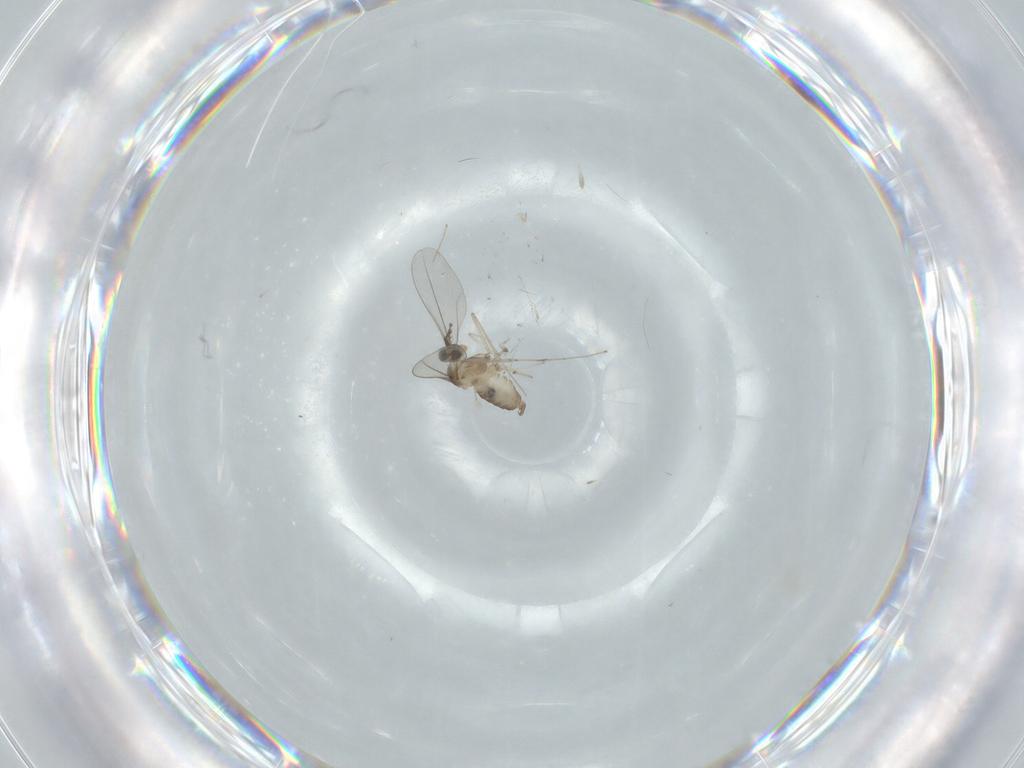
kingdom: Animalia
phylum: Arthropoda
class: Insecta
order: Diptera
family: Cecidomyiidae
